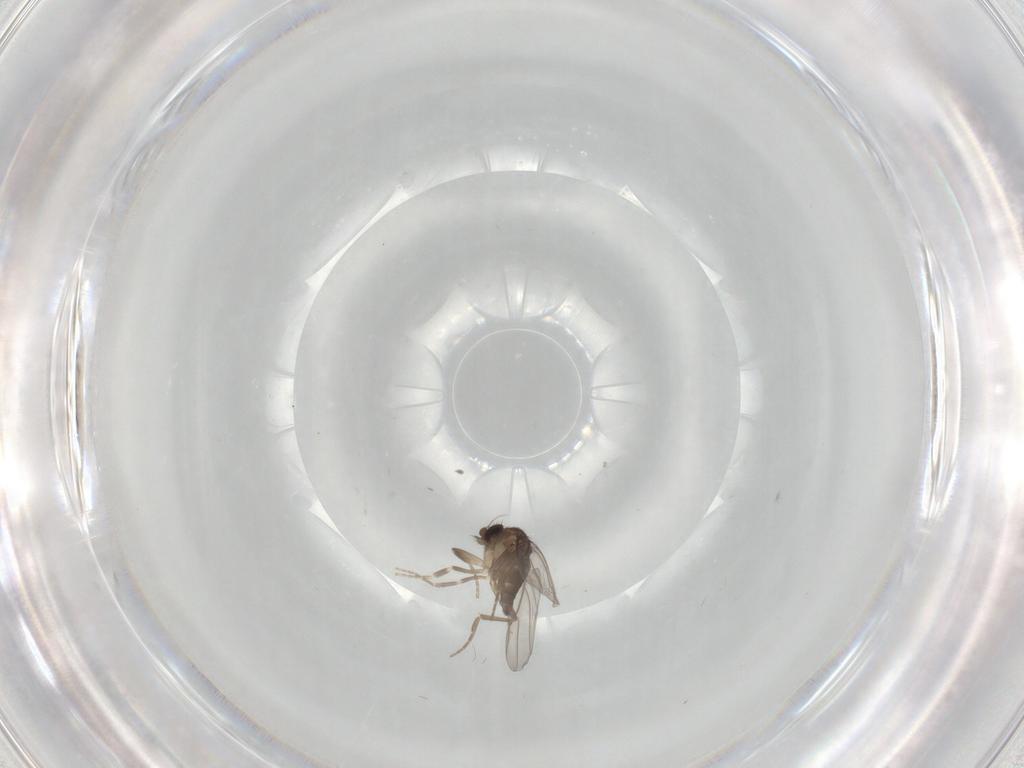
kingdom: Animalia
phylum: Arthropoda
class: Insecta
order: Diptera
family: Phoridae
